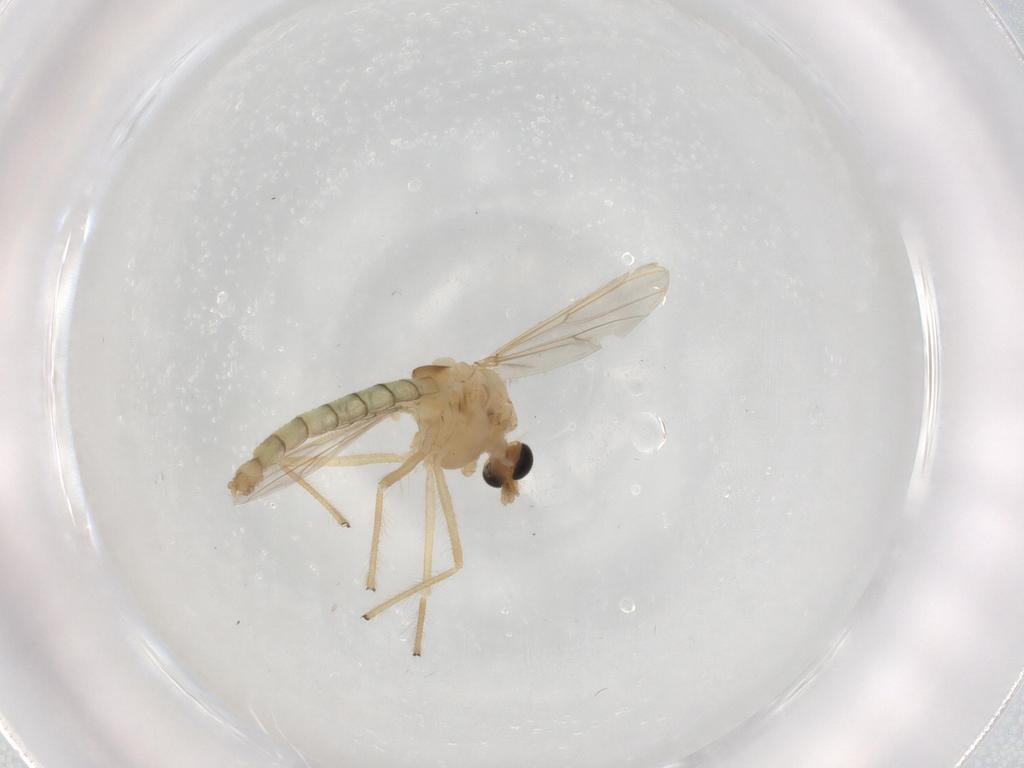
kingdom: Animalia
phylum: Arthropoda
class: Insecta
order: Diptera
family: Chironomidae
